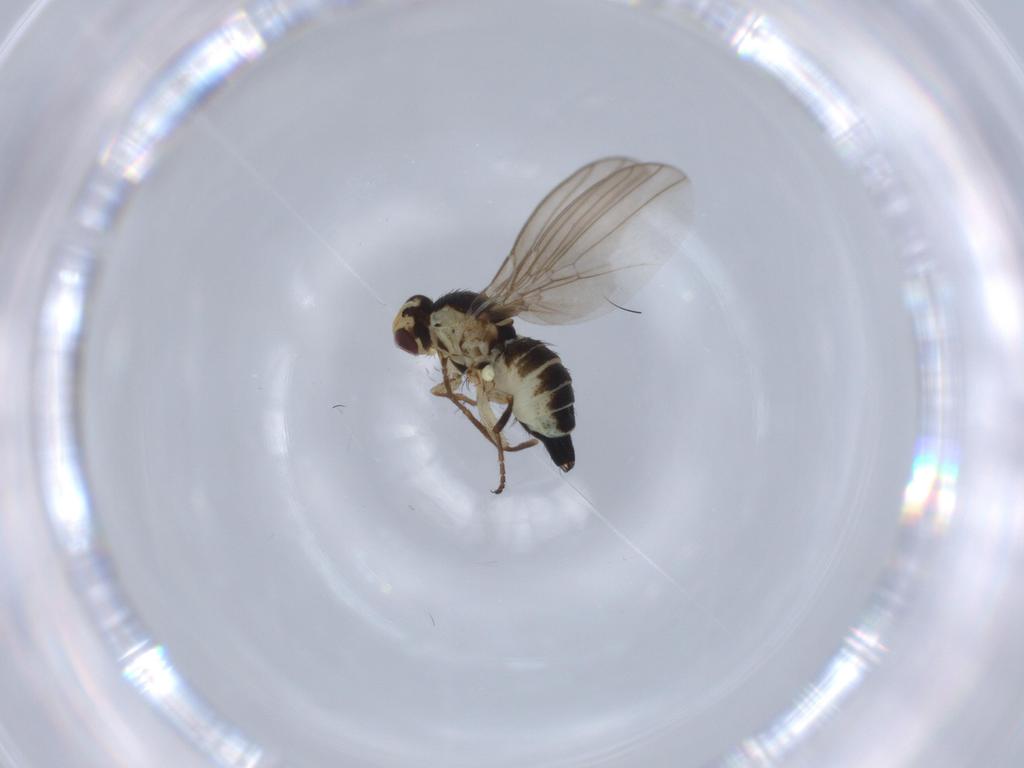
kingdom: Animalia
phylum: Arthropoda
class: Insecta
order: Diptera
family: Agromyzidae
